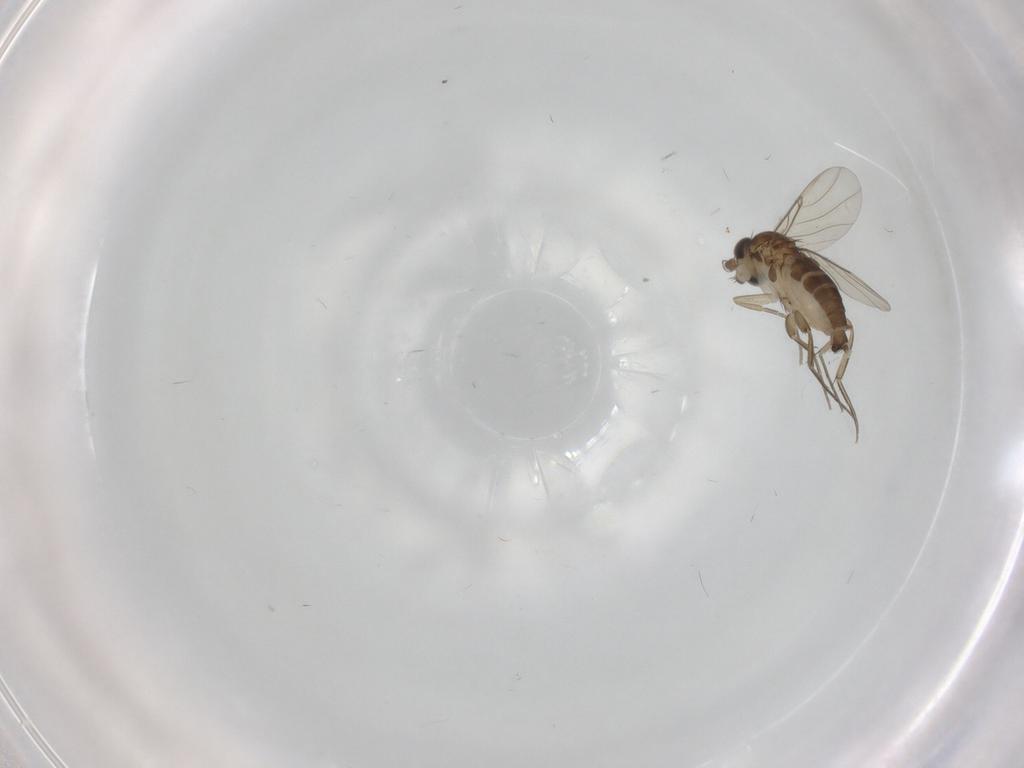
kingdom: Animalia
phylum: Arthropoda
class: Insecta
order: Diptera
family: Phoridae
